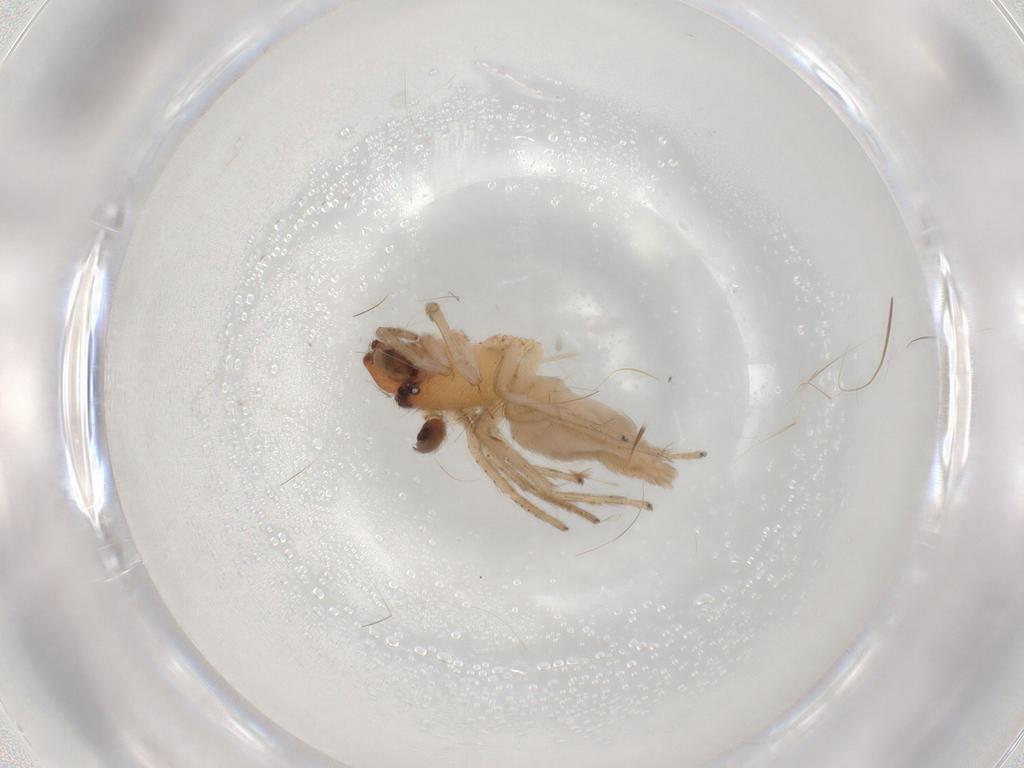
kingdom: Animalia
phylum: Arthropoda
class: Arachnida
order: Araneae
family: Clubionidae
